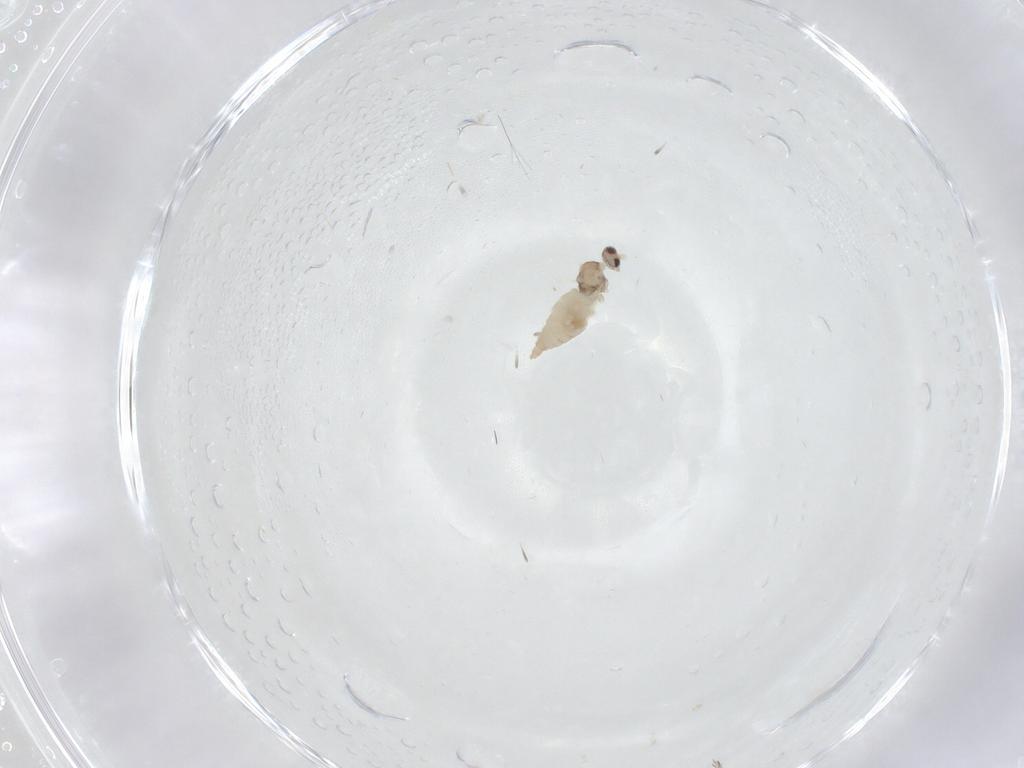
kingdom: Animalia
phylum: Arthropoda
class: Insecta
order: Diptera
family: Cecidomyiidae
